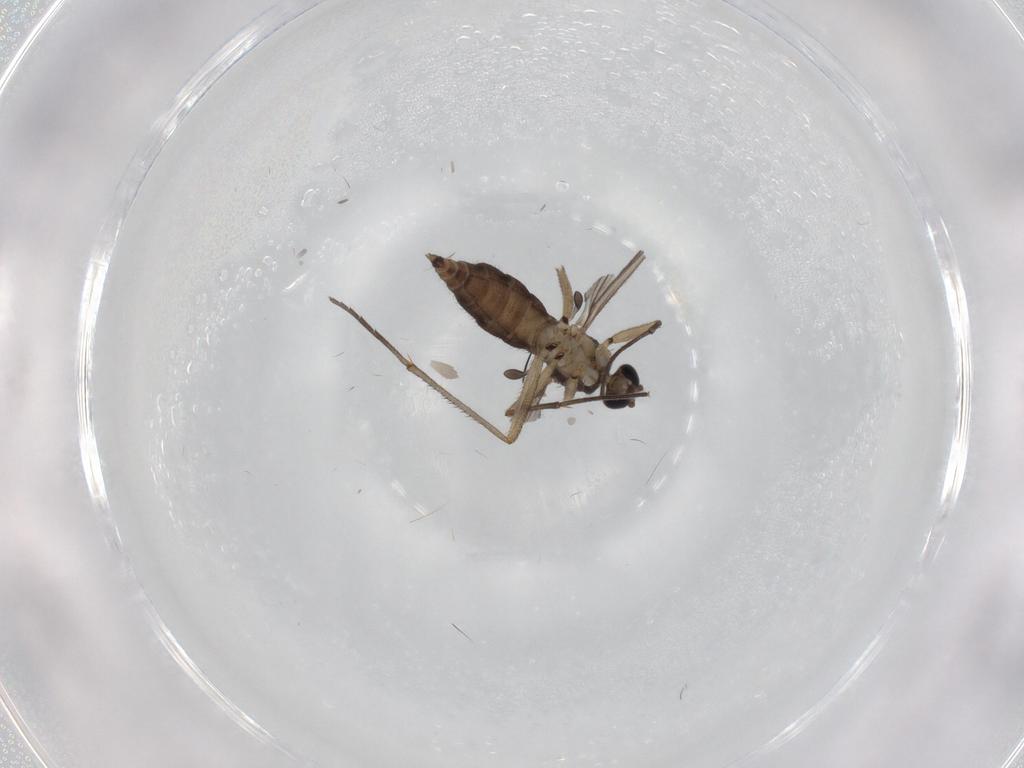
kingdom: Animalia
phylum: Arthropoda
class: Insecta
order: Diptera
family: Sciaridae
